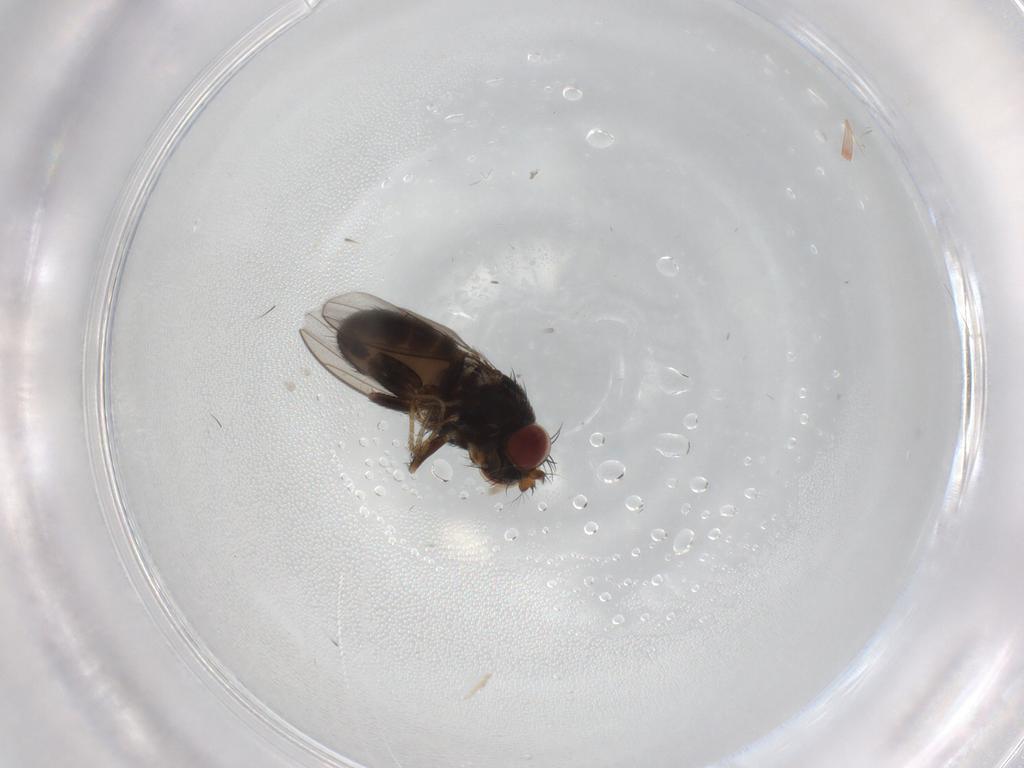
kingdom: Animalia
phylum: Arthropoda
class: Insecta
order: Diptera
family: Ephydridae
